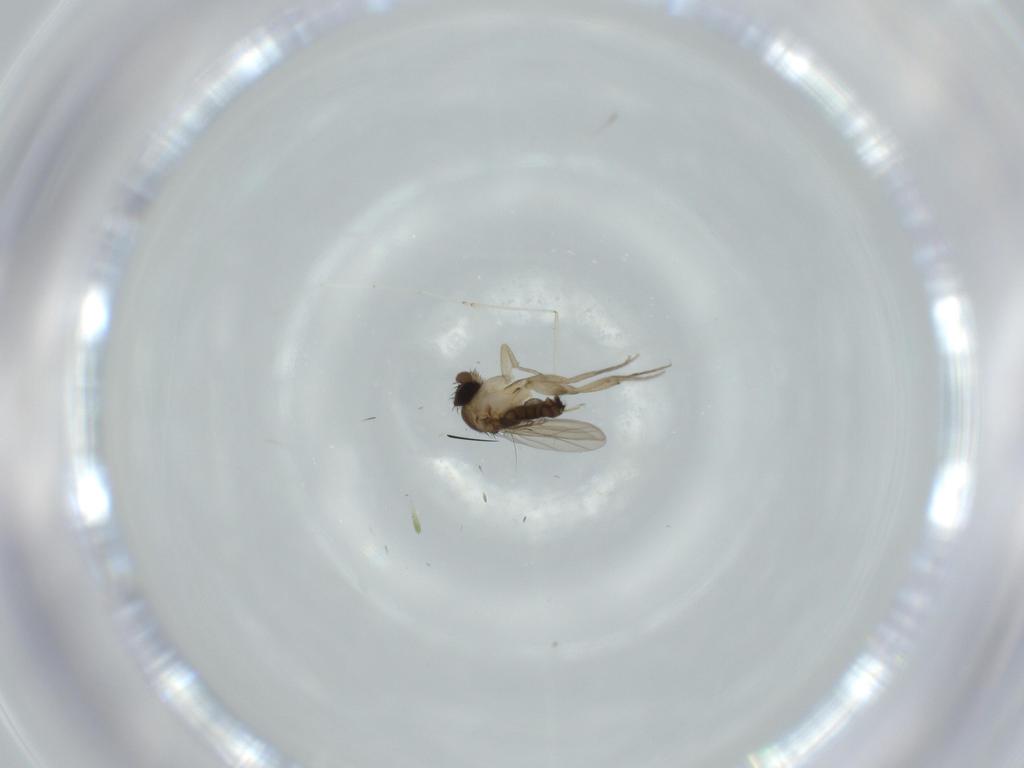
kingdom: Animalia
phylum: Arthropoda
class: Insecta
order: Diptera
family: Phoridae
